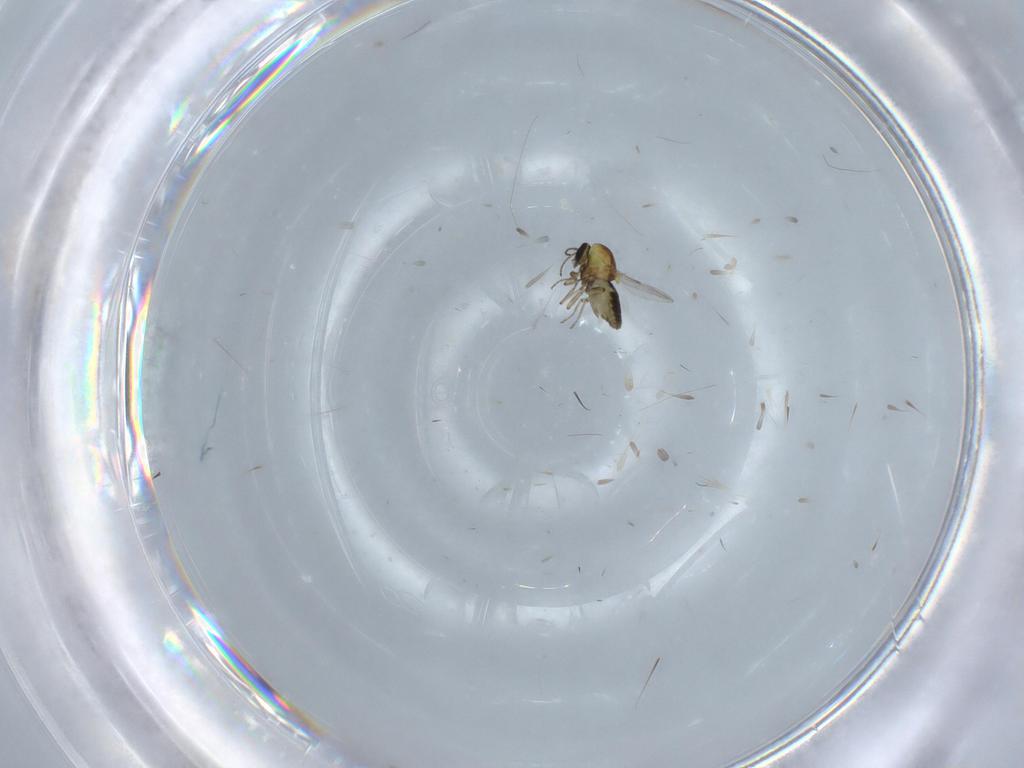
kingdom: Animalia
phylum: Arthropoda
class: Insecta
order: Diptera
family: Ceratopogonidae
